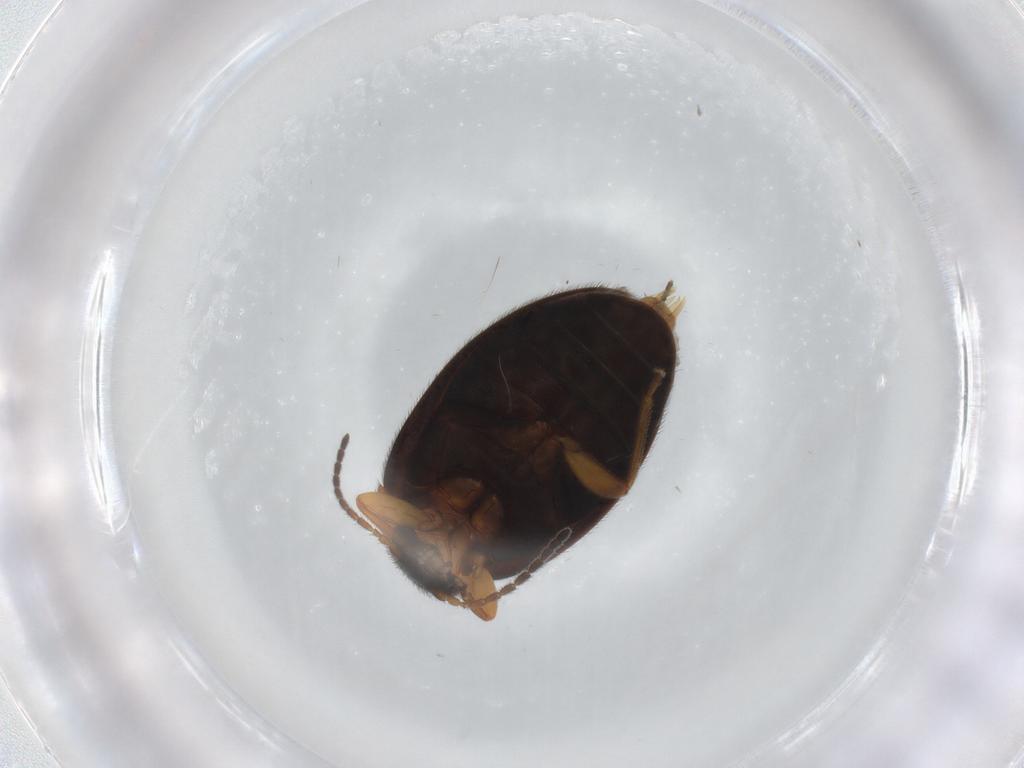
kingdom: Animalia
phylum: Arthropoda
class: Insecta
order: Coleoptera
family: Scirtidae
